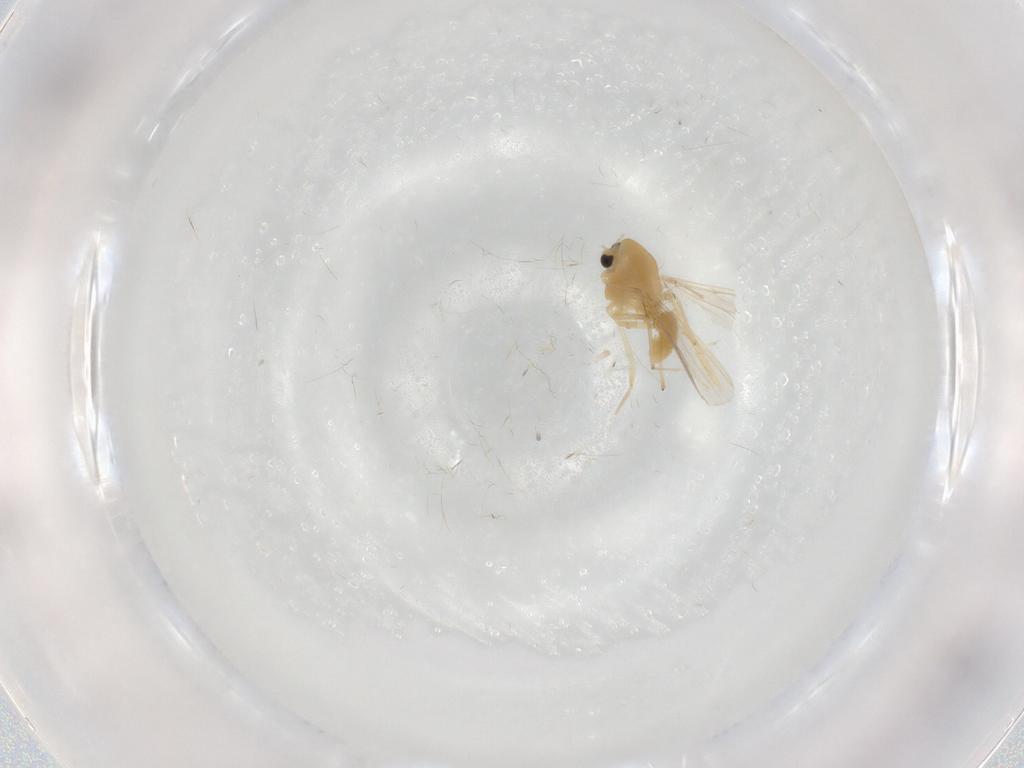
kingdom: Animalia
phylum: Arthropoda
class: Insecta
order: Diptera
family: Chironomidae
